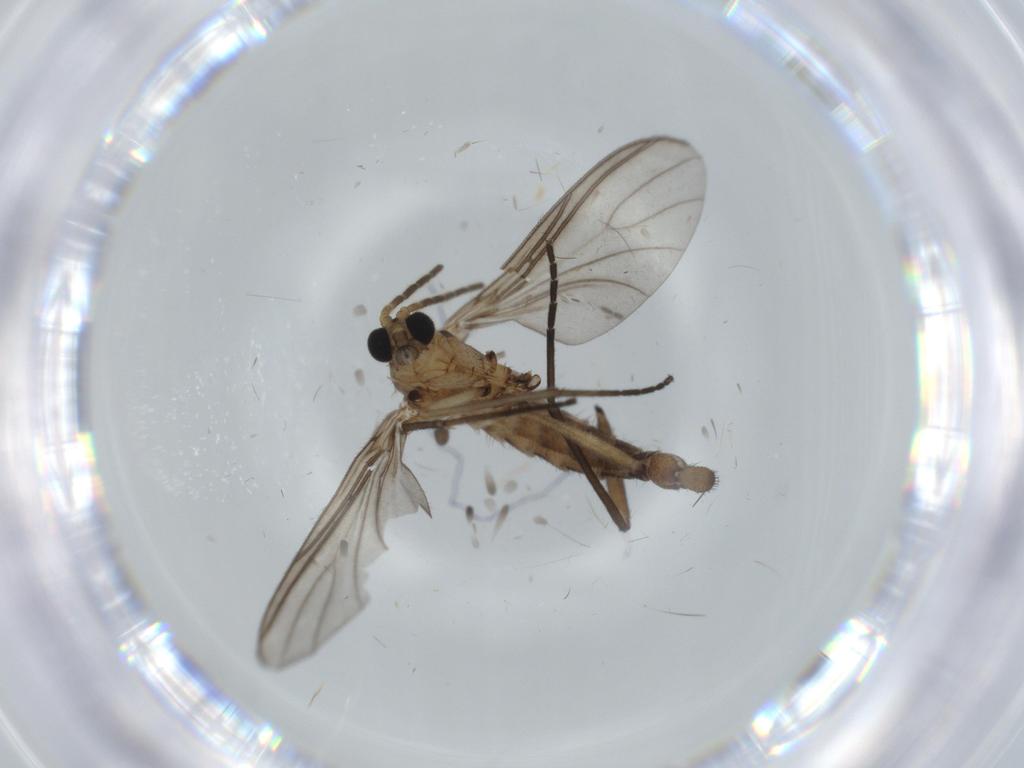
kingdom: Animalia
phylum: Arthropoda
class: Insecta
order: Diptera
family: Sciaridae
